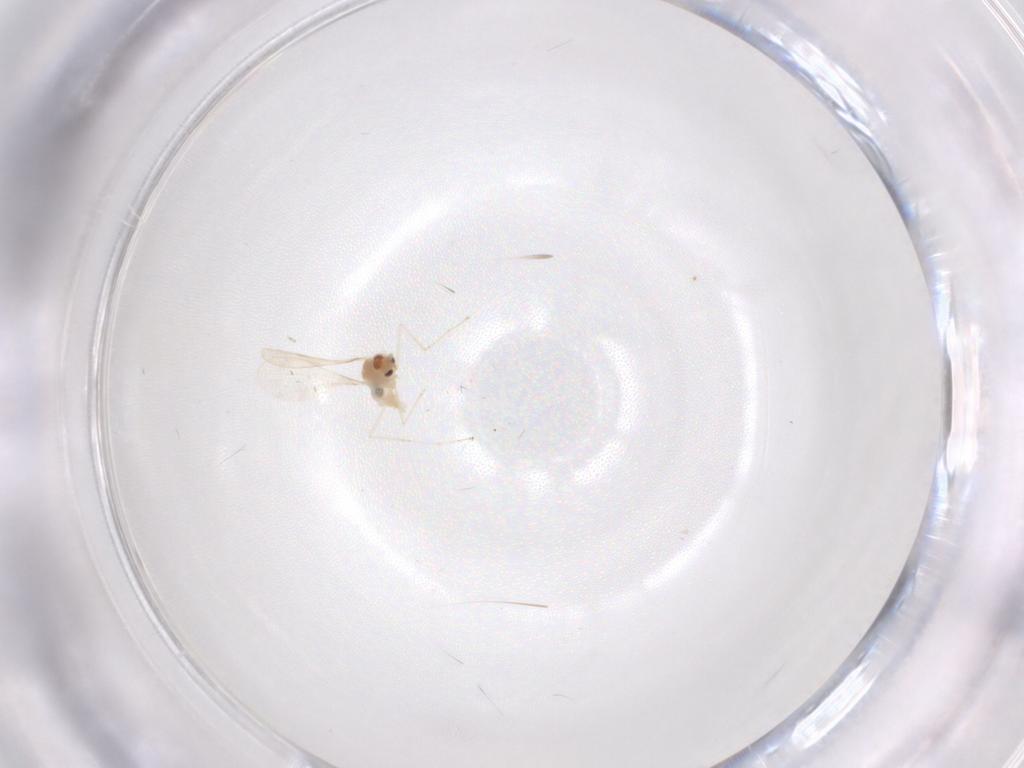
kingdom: Animalia
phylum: Arthropoda
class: Insecta
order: Diptera
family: Cecidomyiidae
